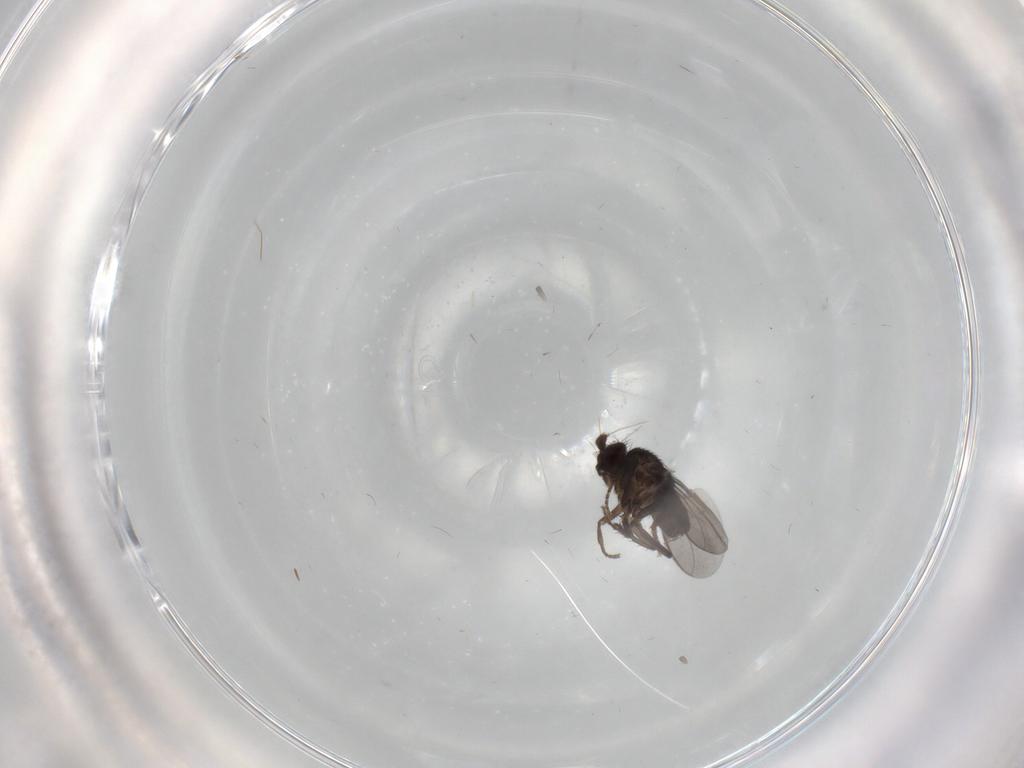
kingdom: Animalia
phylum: Arthropoda
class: Insecta
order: Diptera
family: Sphaeroceridae
